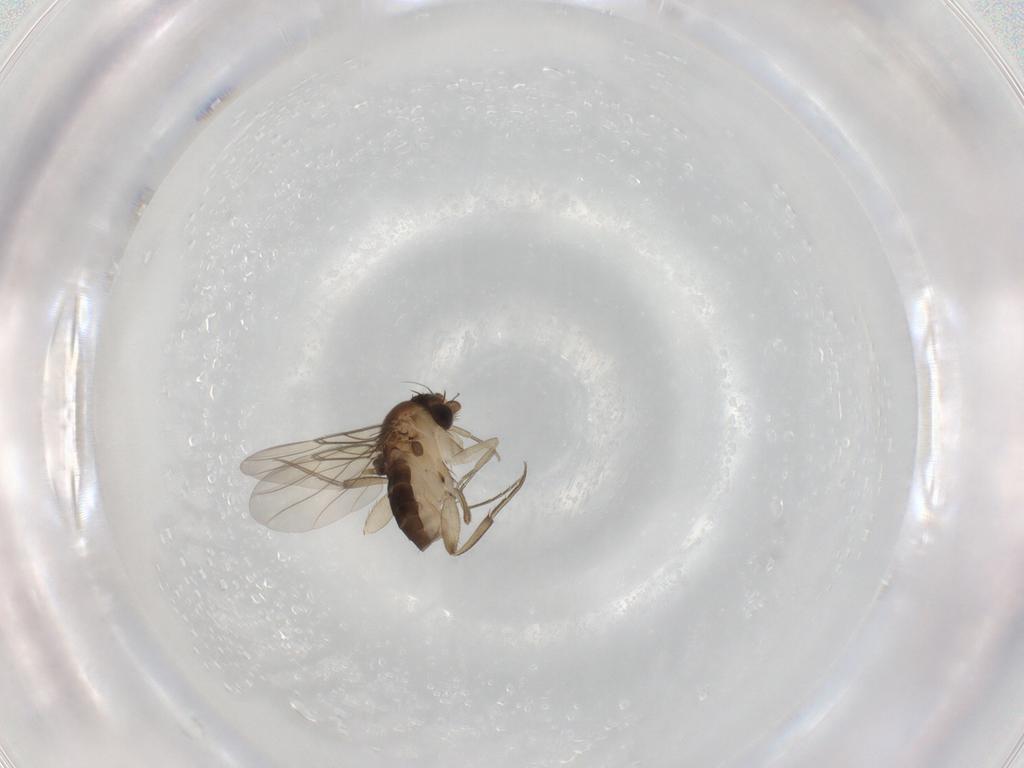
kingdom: Animalia
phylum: Arthropoda
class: Insecta
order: Diptera
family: Phoridae
